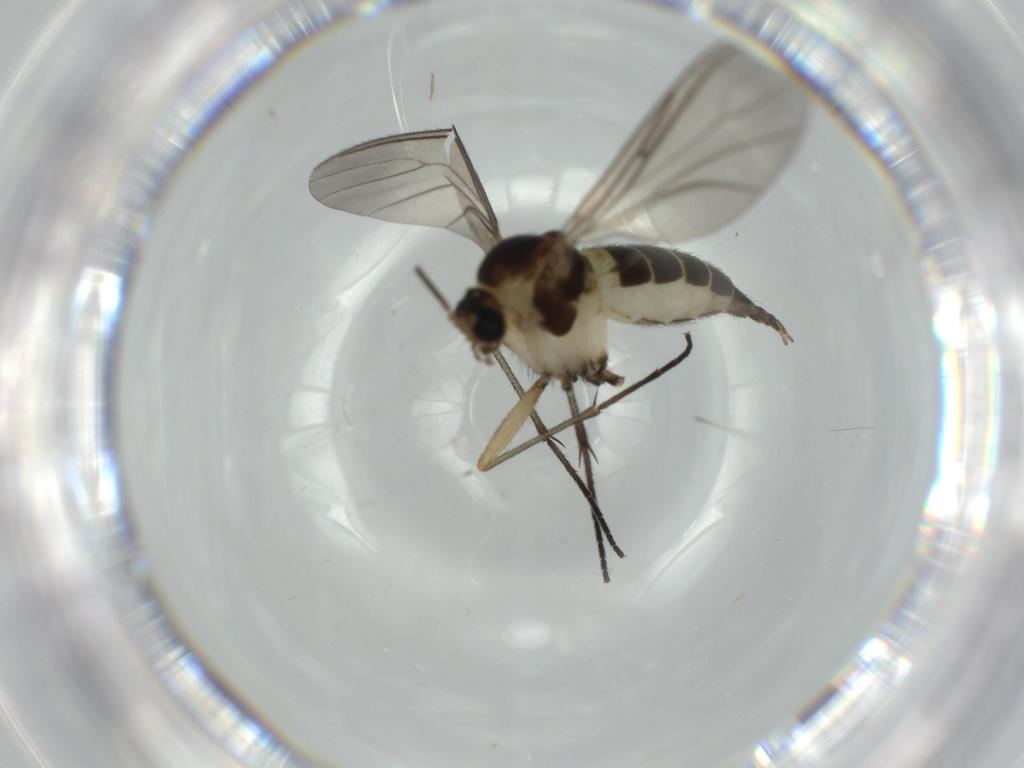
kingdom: Animalia
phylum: Arthropoda
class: Insecta
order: Diptera
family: Sciaridae
